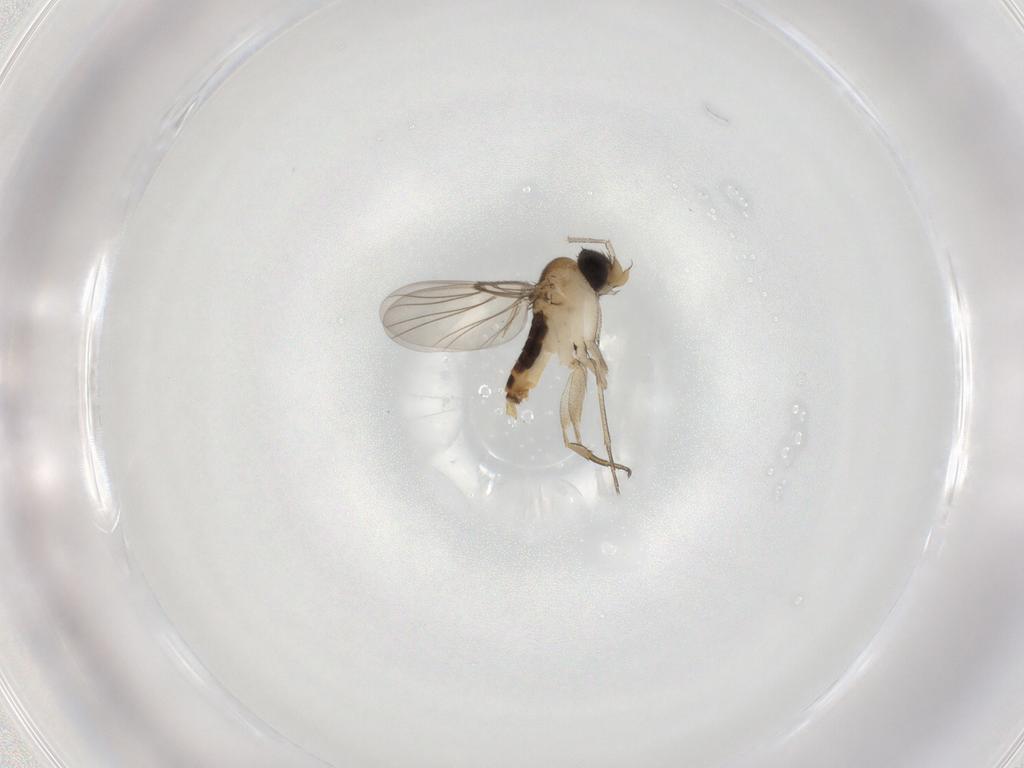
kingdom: Animalia
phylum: Arthropoda
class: Insecta
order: Diptera
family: Phoridae
